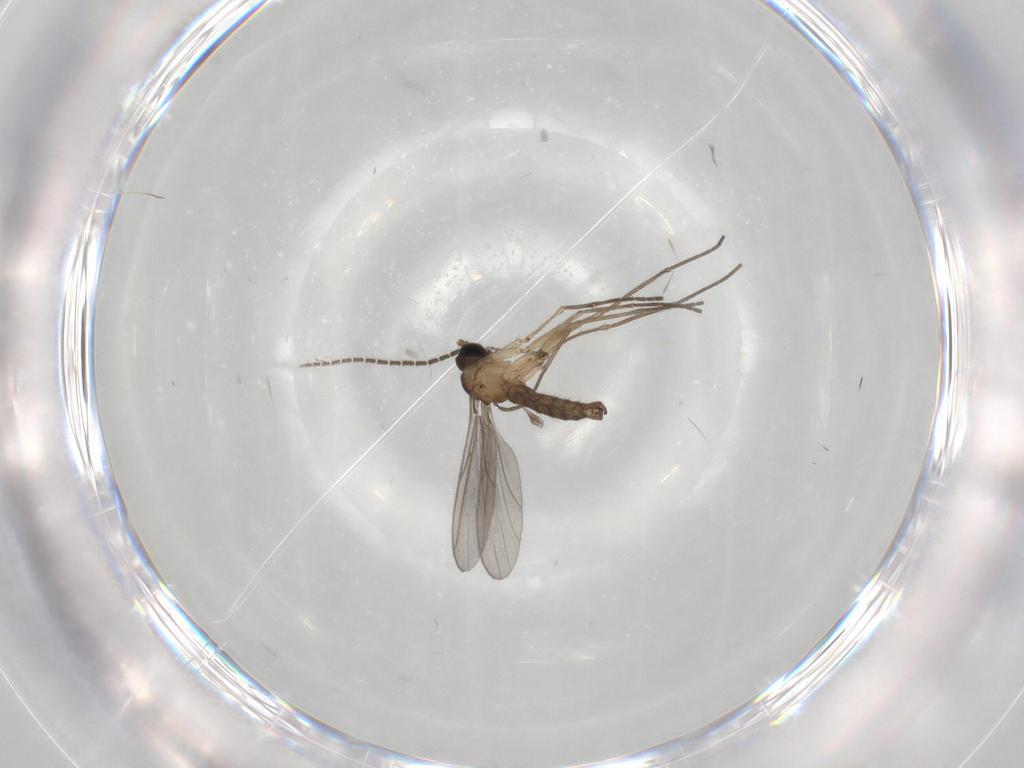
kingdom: Animalia
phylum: Arthropoda
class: Insecta
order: Diptera
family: Sciaridae
